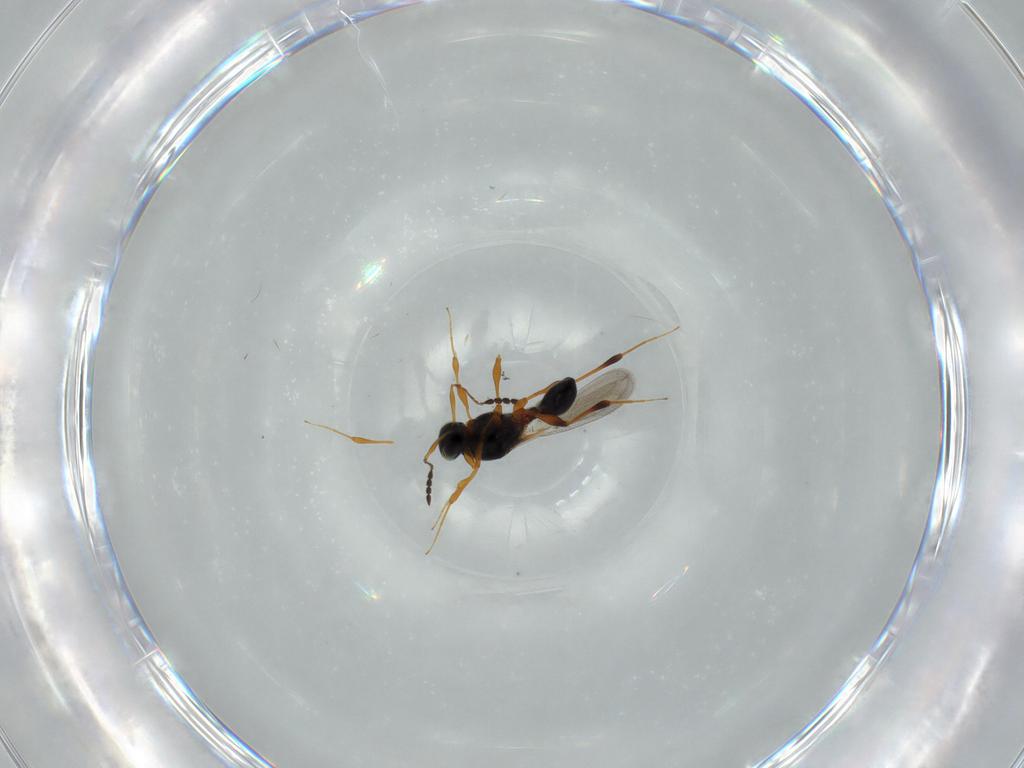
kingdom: Animalia
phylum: Arthropoda
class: Insecta
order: Hymenoptera
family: Platygastridae
